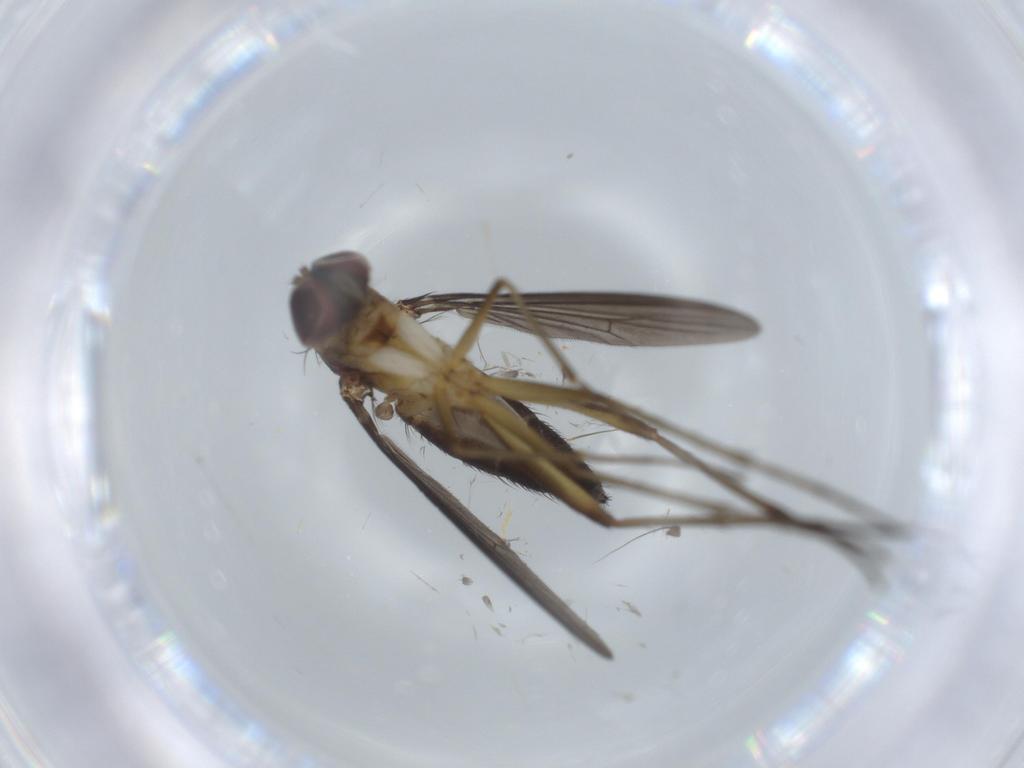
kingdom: Animalia
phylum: Arthropoda
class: Insecta
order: Diptera
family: Dolichopodidae
